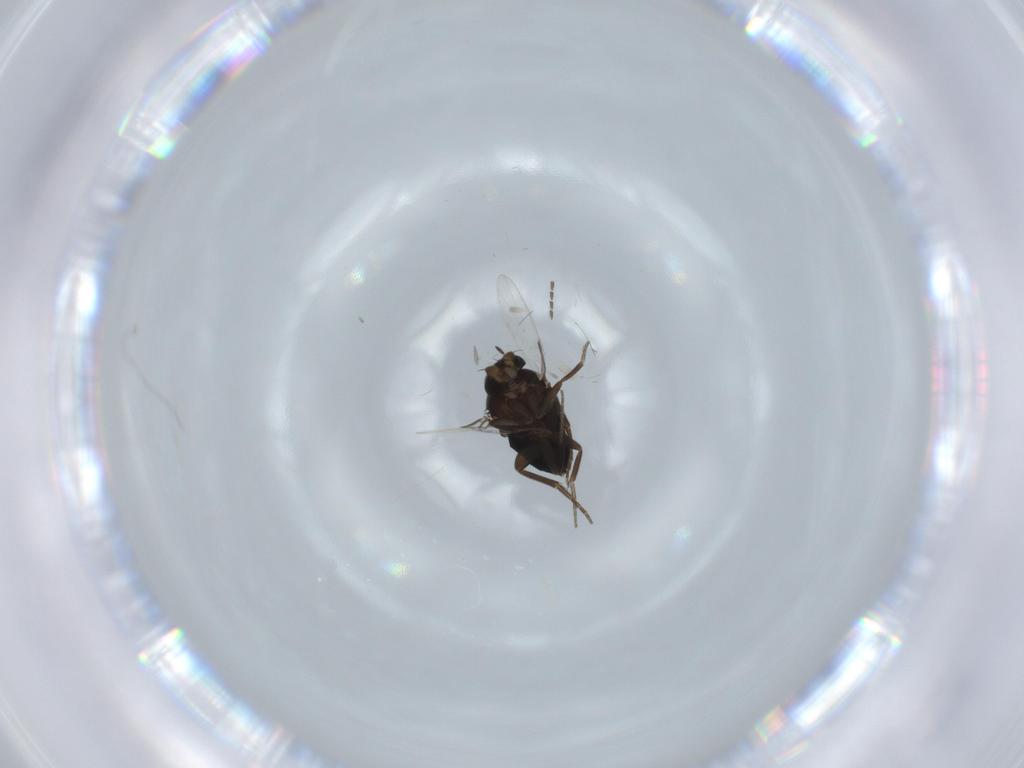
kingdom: Animalia
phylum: Arthropoda
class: Insecta
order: Diptera
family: Phoridae
